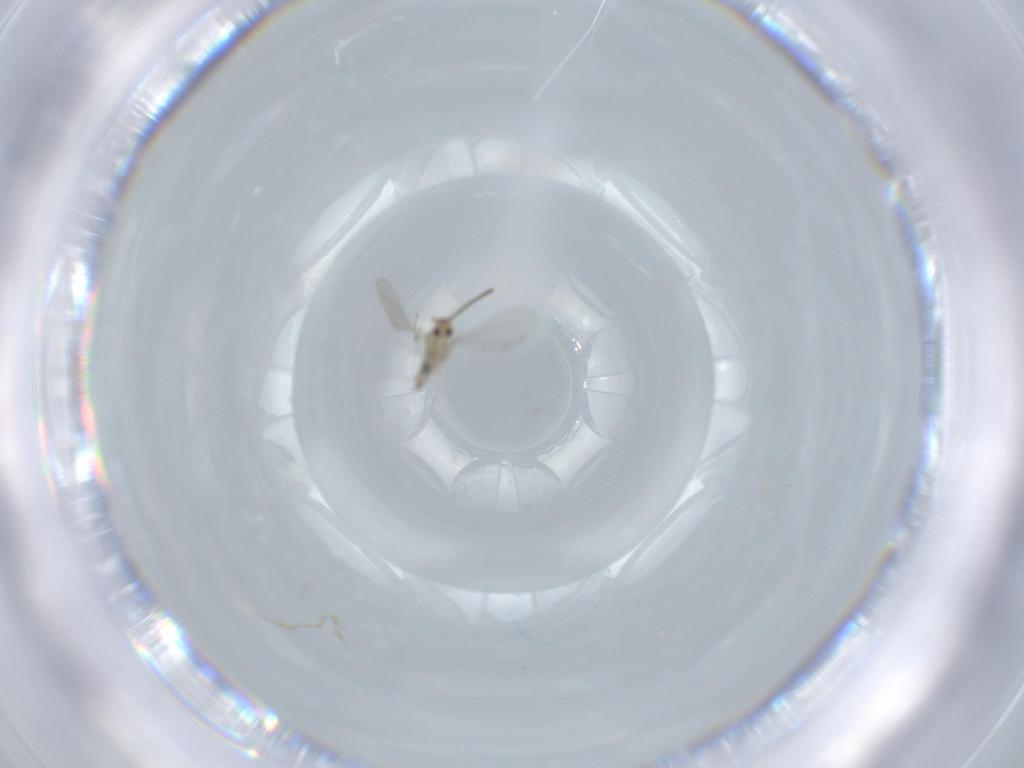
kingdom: Animalia
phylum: Arthropoda
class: Insecta
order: Diptera
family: Cecidomyiidae
